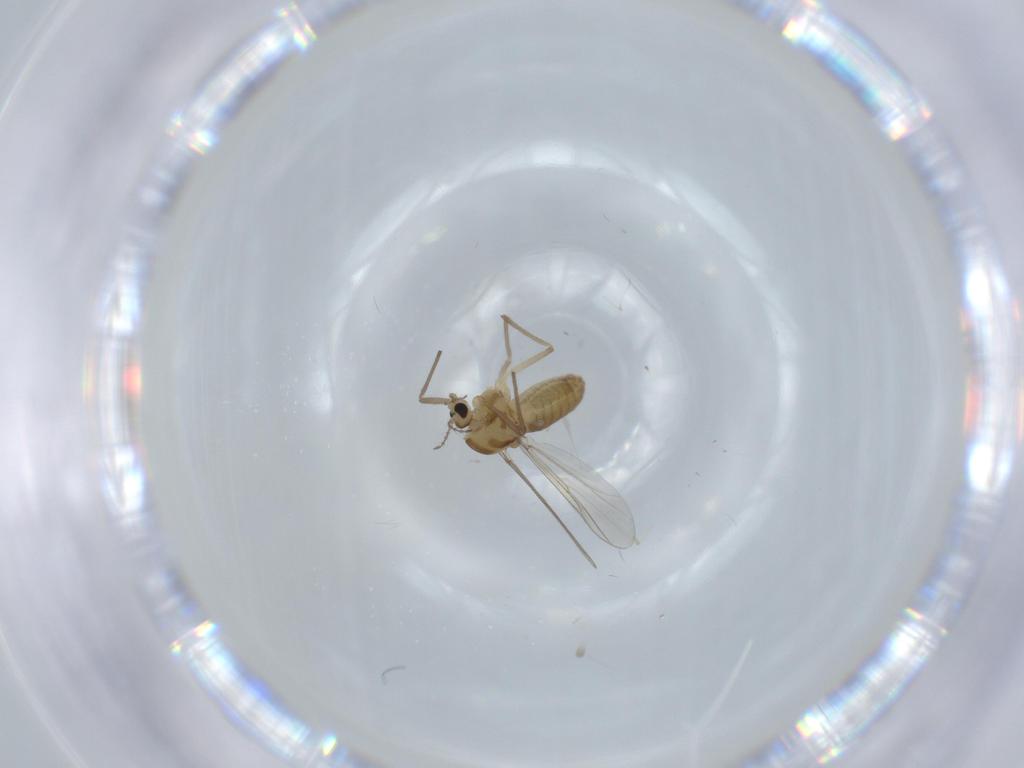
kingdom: Animalia
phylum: Arthropoda
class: Insecta
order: Diptera
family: Chironomidae
